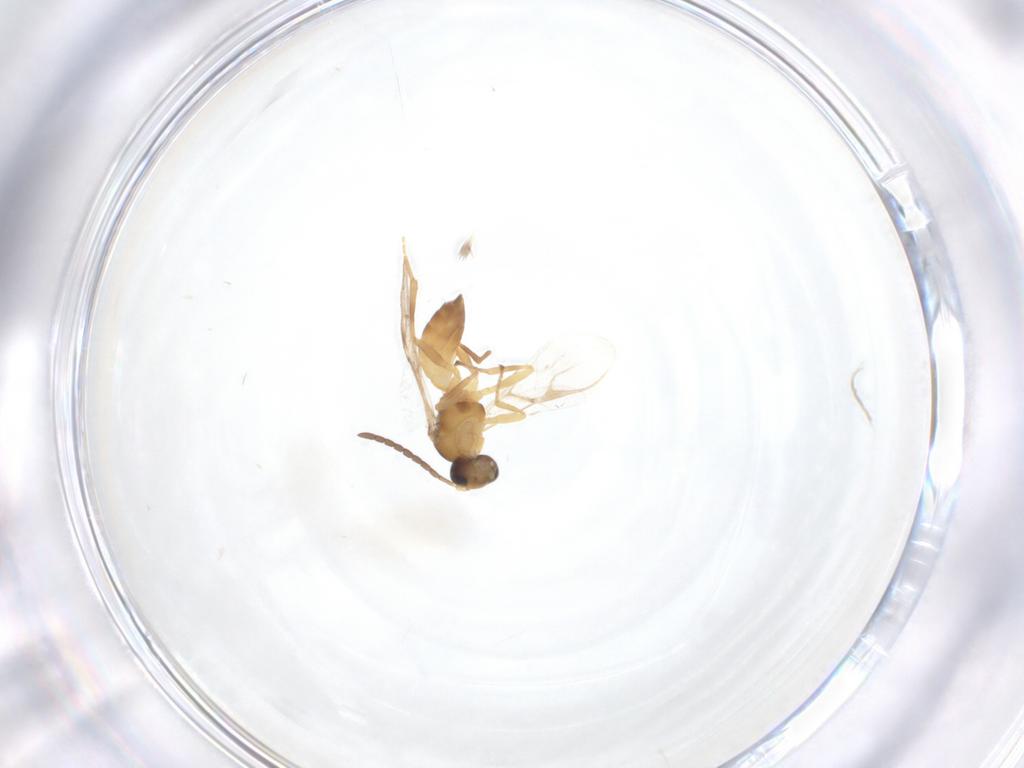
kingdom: Animalia
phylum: Arthropoda
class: Insecta
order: Hymenoptera
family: Braconidae
